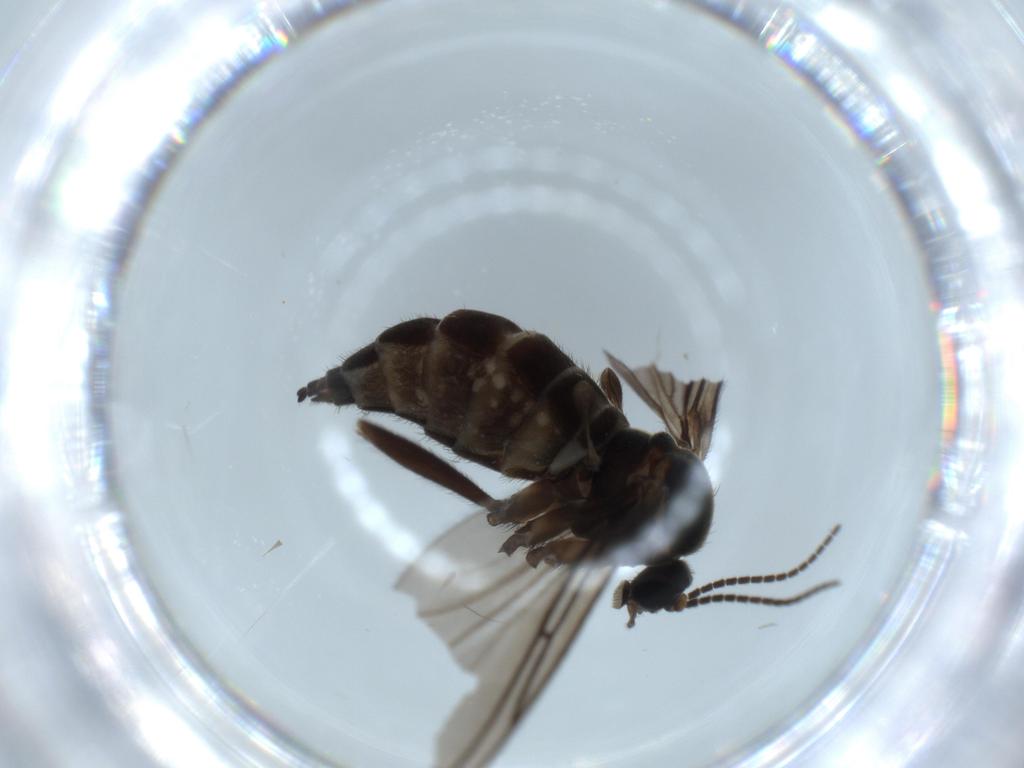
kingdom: Animalia
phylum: Arthropoda
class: Insecta
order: Diptera
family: Sciaridae
